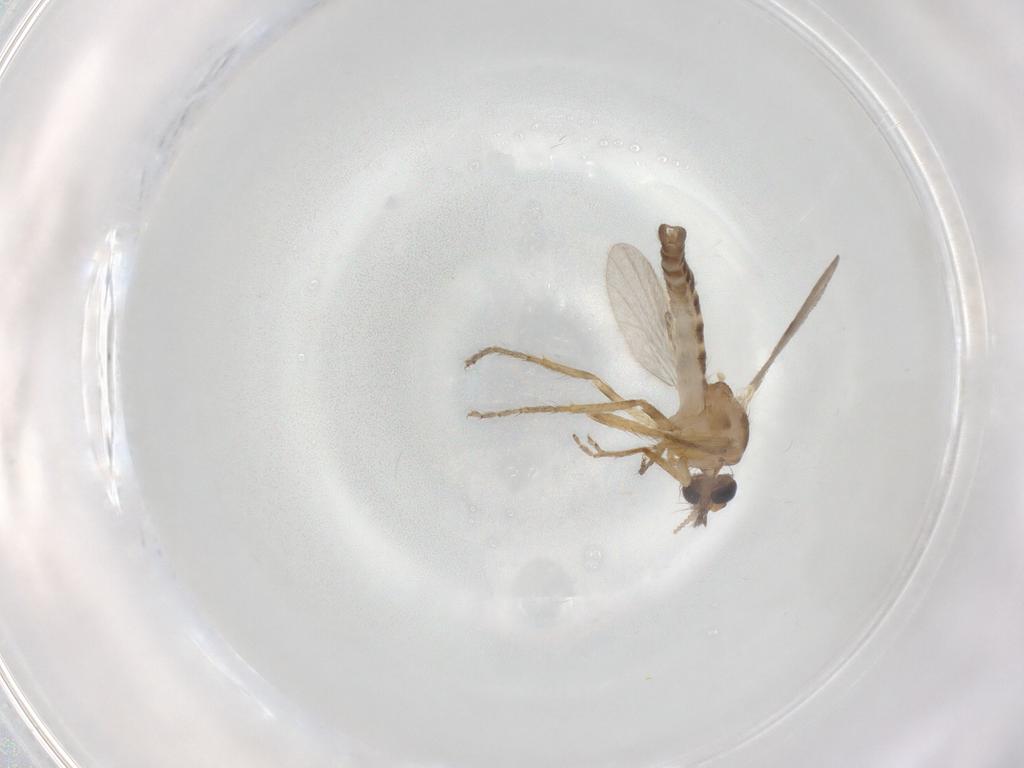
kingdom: Animalia
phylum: Arthropoda
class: Insecta
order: Diptera
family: Ceratopogonidae
